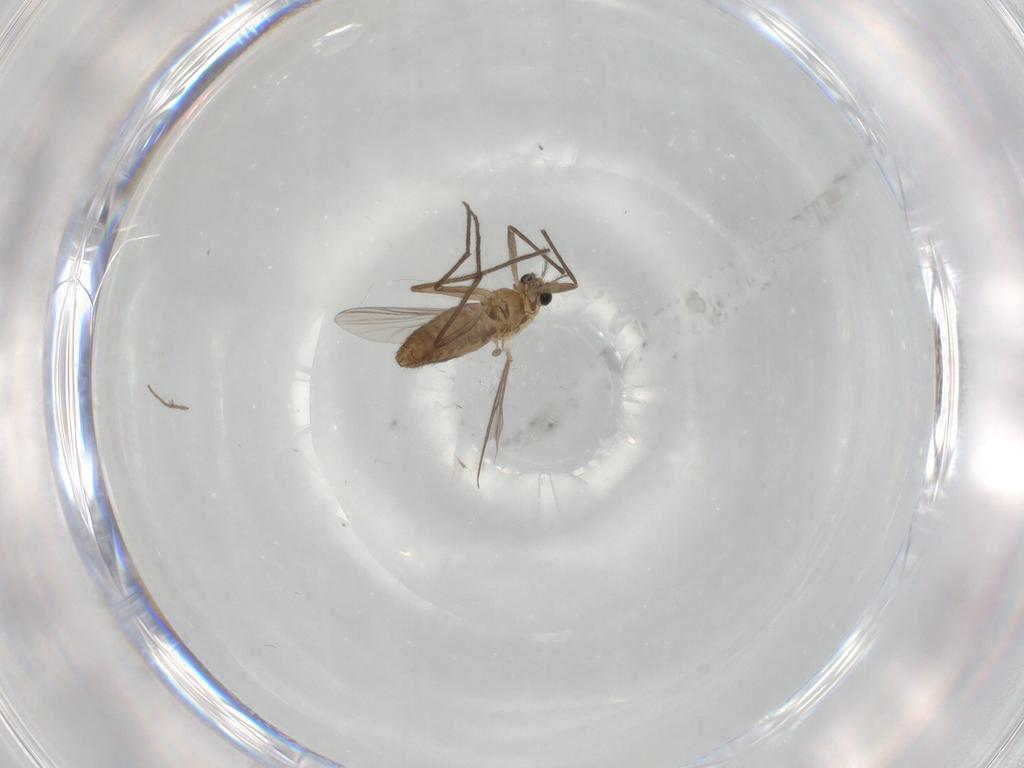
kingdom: Animalia
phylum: Arthropoda
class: Insecta
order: Diptera
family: Chironomidae
